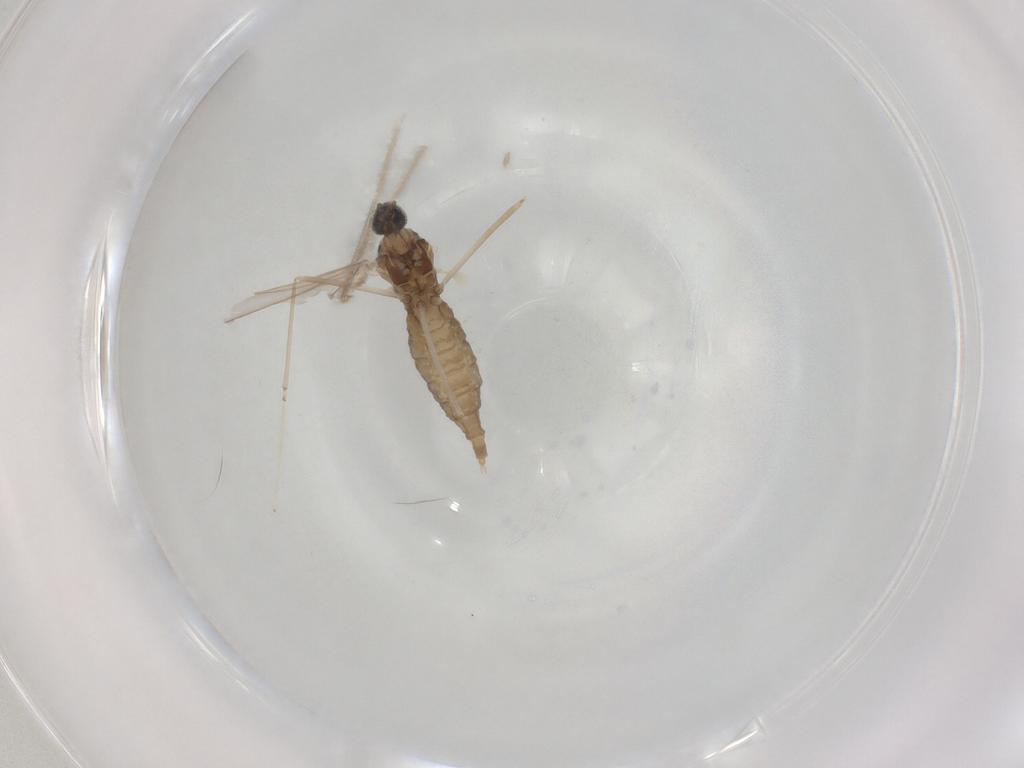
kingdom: Animalia
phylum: Arthropoda
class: Insecta
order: Diptera
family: Cecidomyiidae
